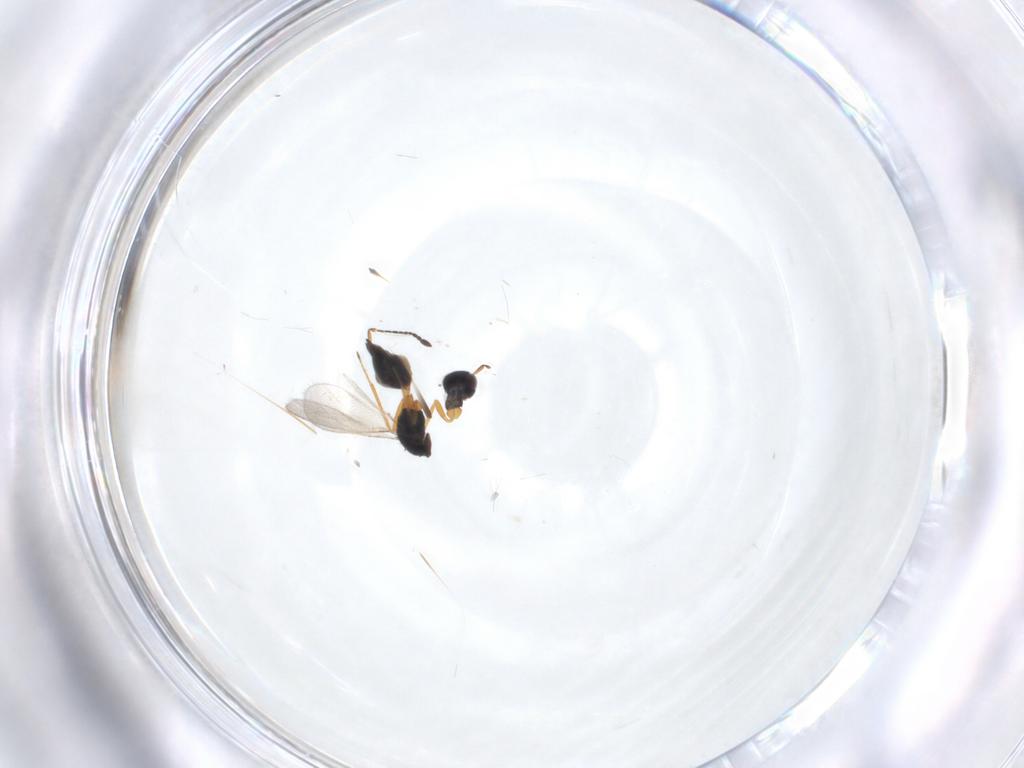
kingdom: Animalia
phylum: Arthropoda
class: Insecta
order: Hymenoptera
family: Mymaridae
